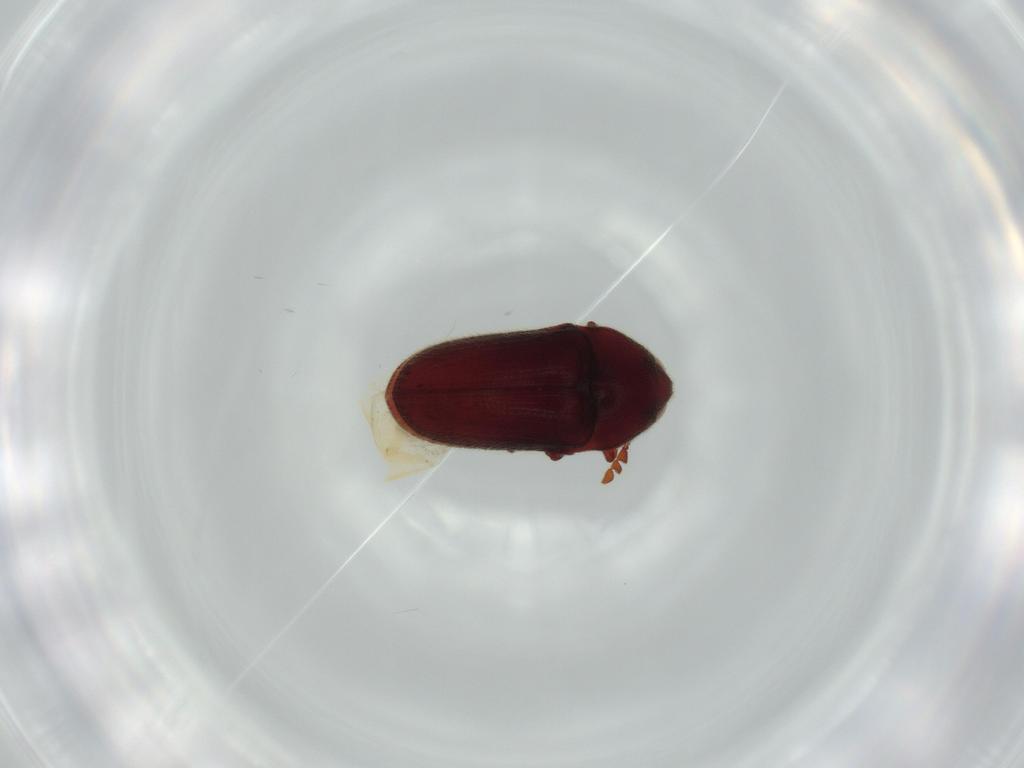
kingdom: Animalia
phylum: Arthropoda
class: Insecta
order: Coleoptera
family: Throscidae
